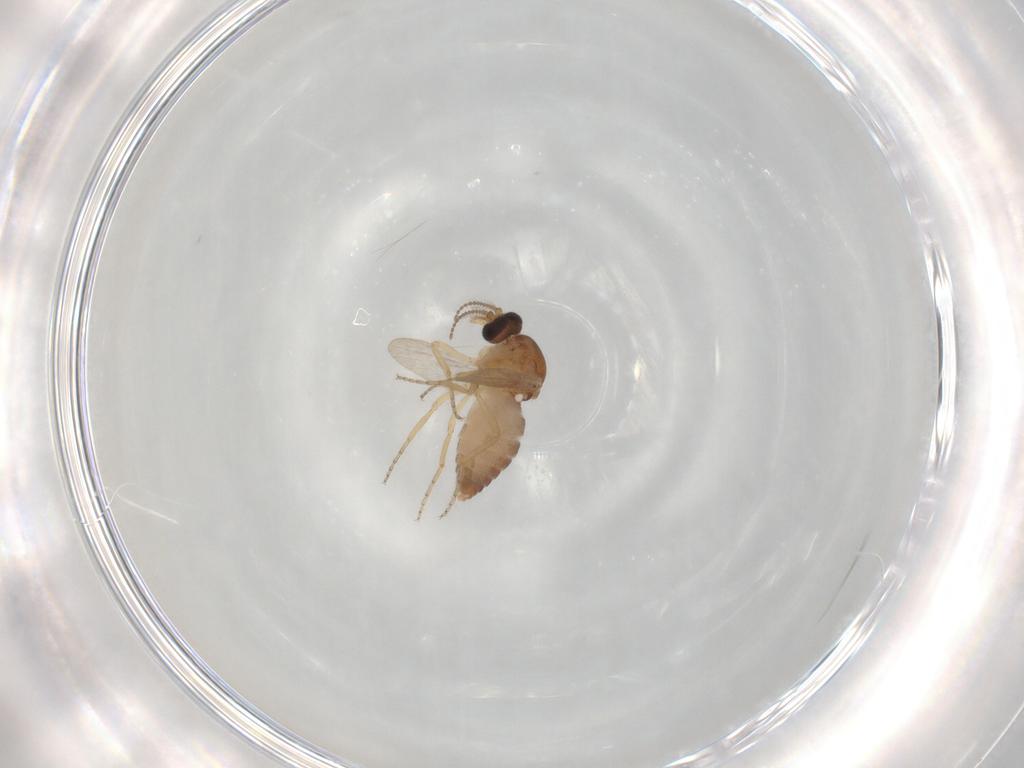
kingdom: Animalia
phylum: Arthropoda
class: Insecta
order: Diptera
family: Ceratopogonidae
